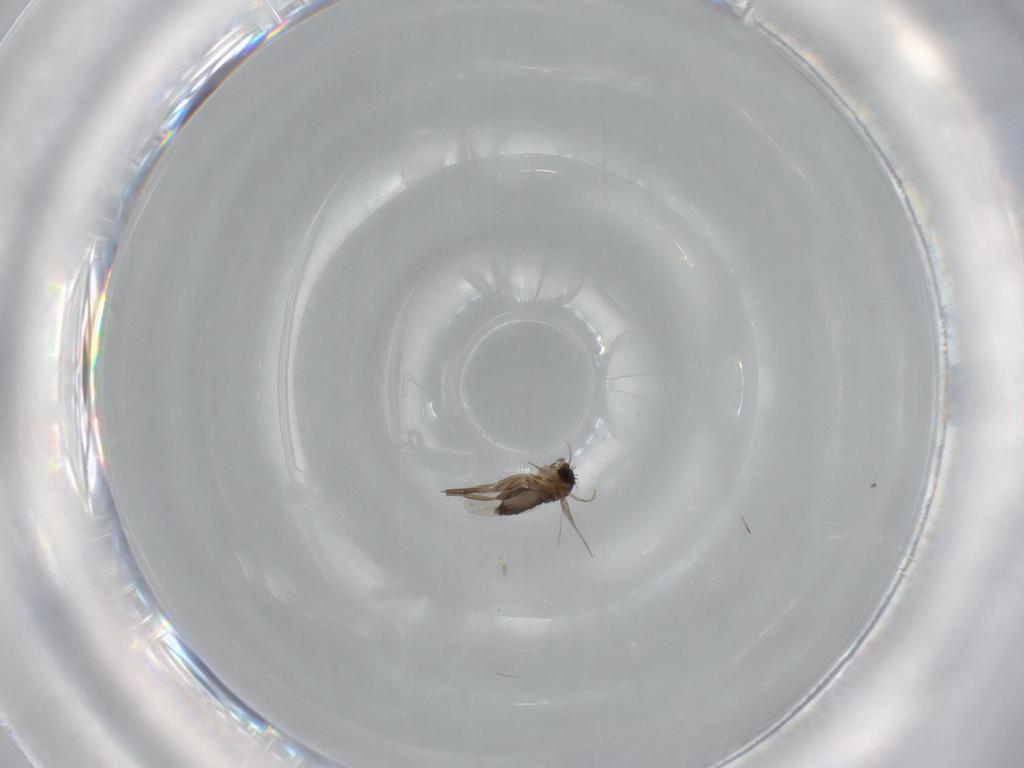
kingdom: Animalia
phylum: Arthropoda
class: Insecta
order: Diptera
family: Phoridae
